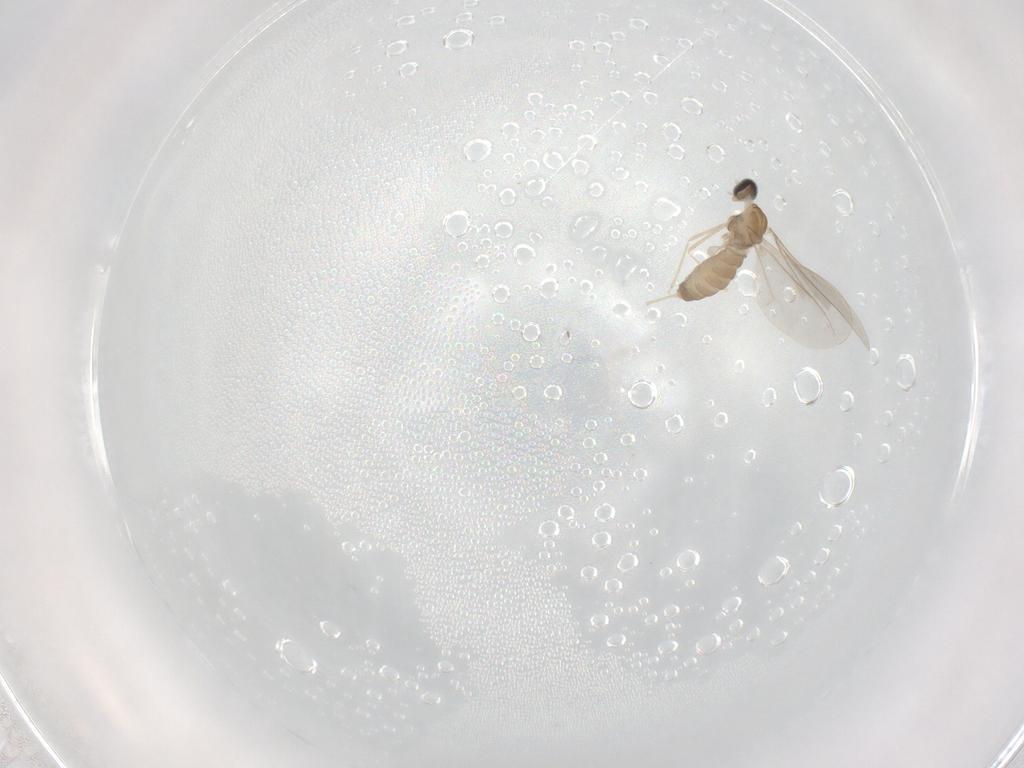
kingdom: Animalia
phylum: Arthropoda
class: Insecta
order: Diptera
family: Cecidomyiidae
